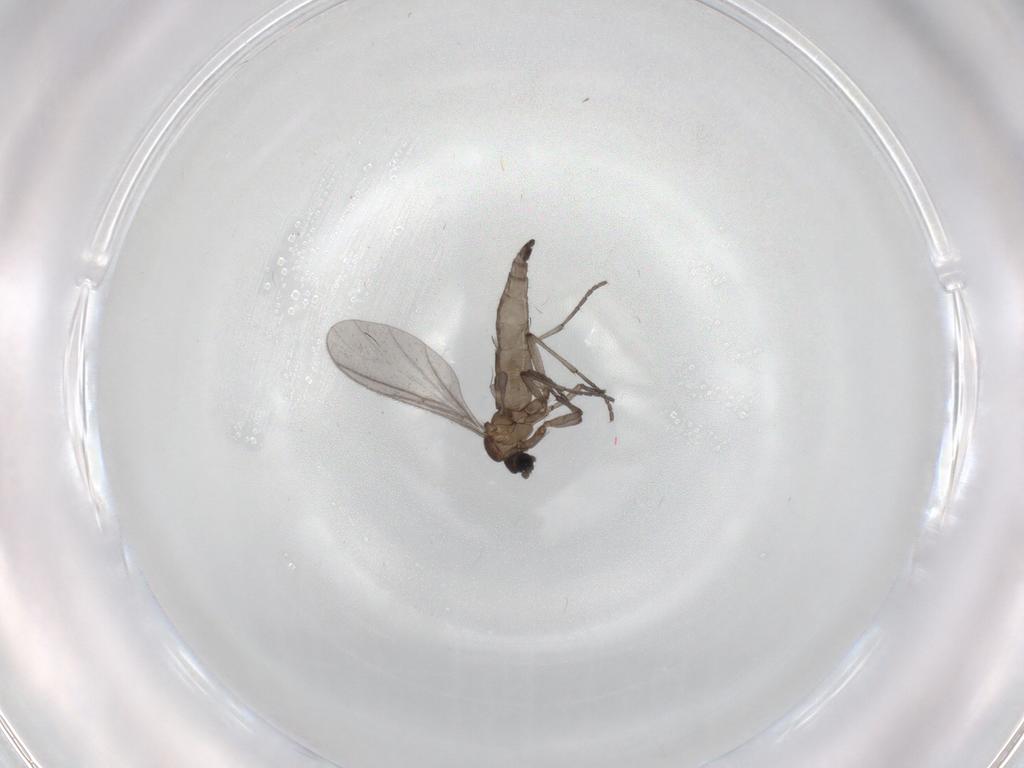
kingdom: Animalia
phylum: Arthropoda
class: Insecta
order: Diptera
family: Sciaridae
